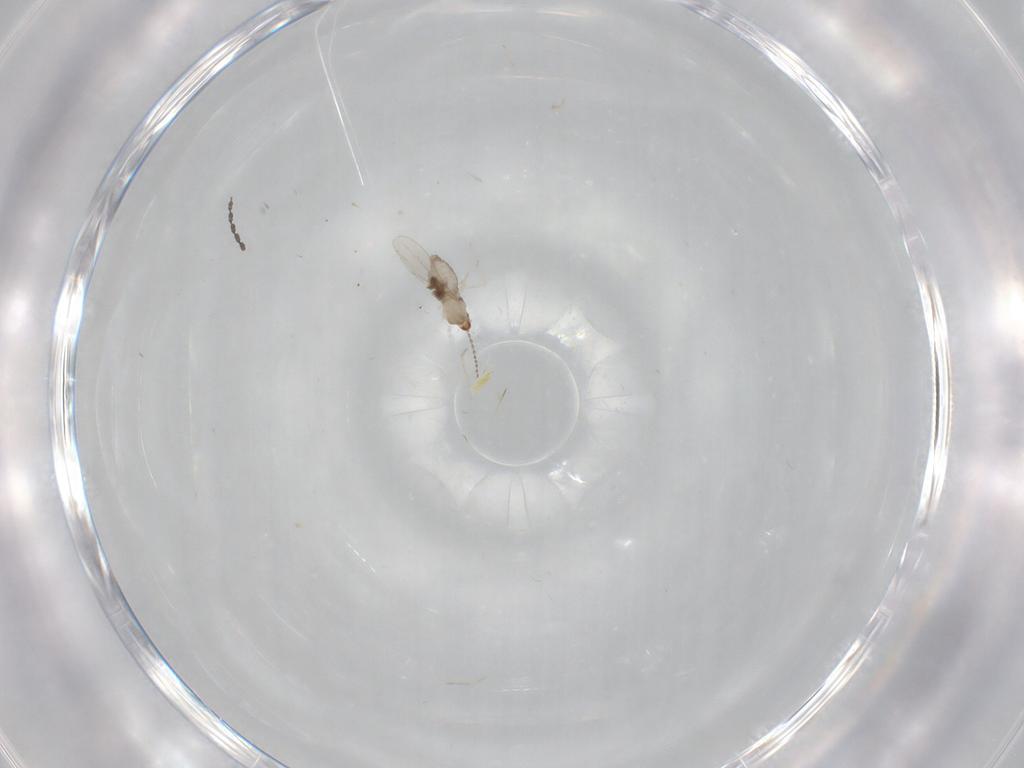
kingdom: Animalia
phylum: Arthropoda
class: Insecta
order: Diptera
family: Cecidomyiidae
